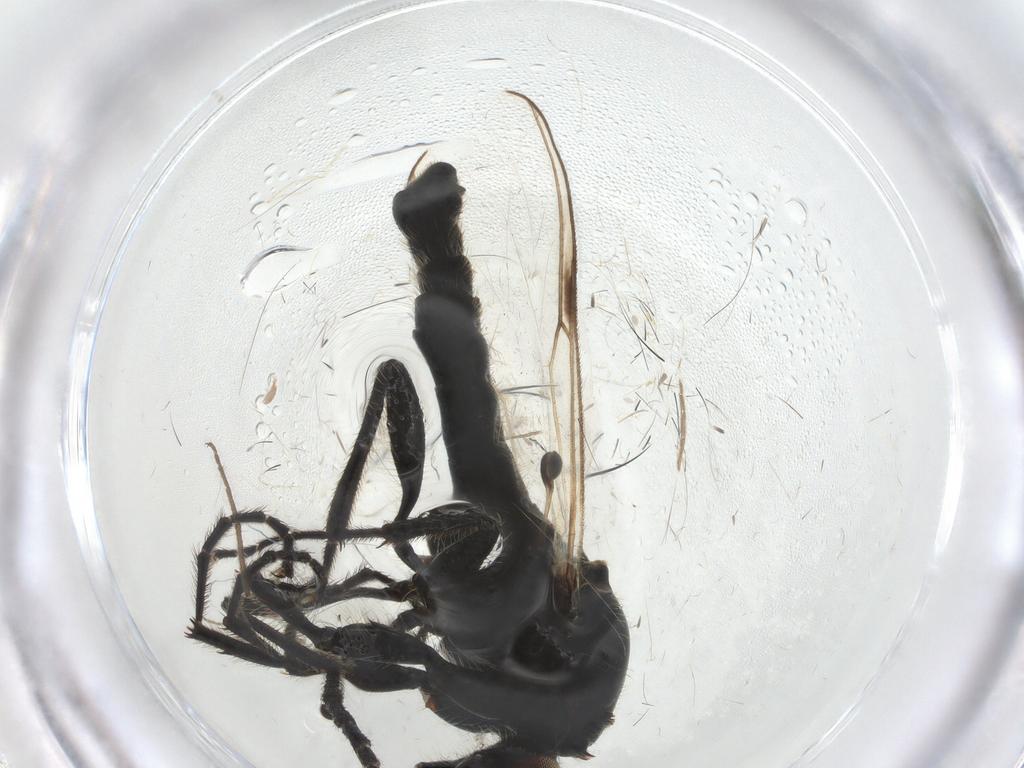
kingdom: Animalia
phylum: Arthropoda
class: Insecta
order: Diptera
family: Bibionidae
